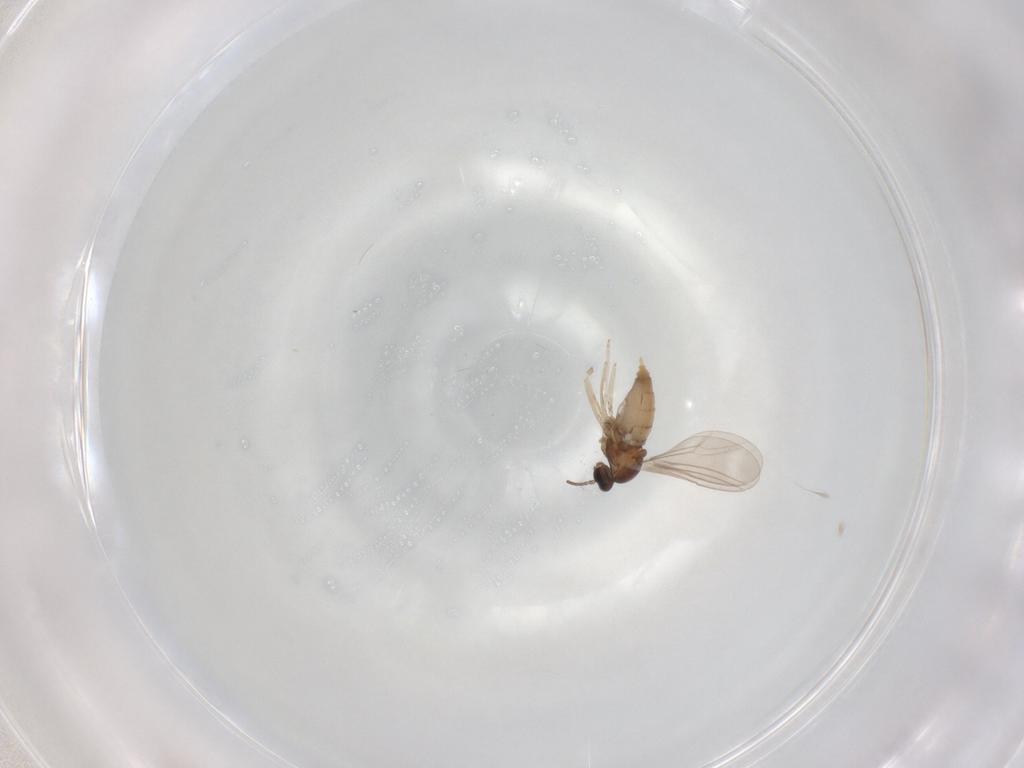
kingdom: Animalia
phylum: Arthropoda
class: Insecta
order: Diptera
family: Cecidomyiidae
